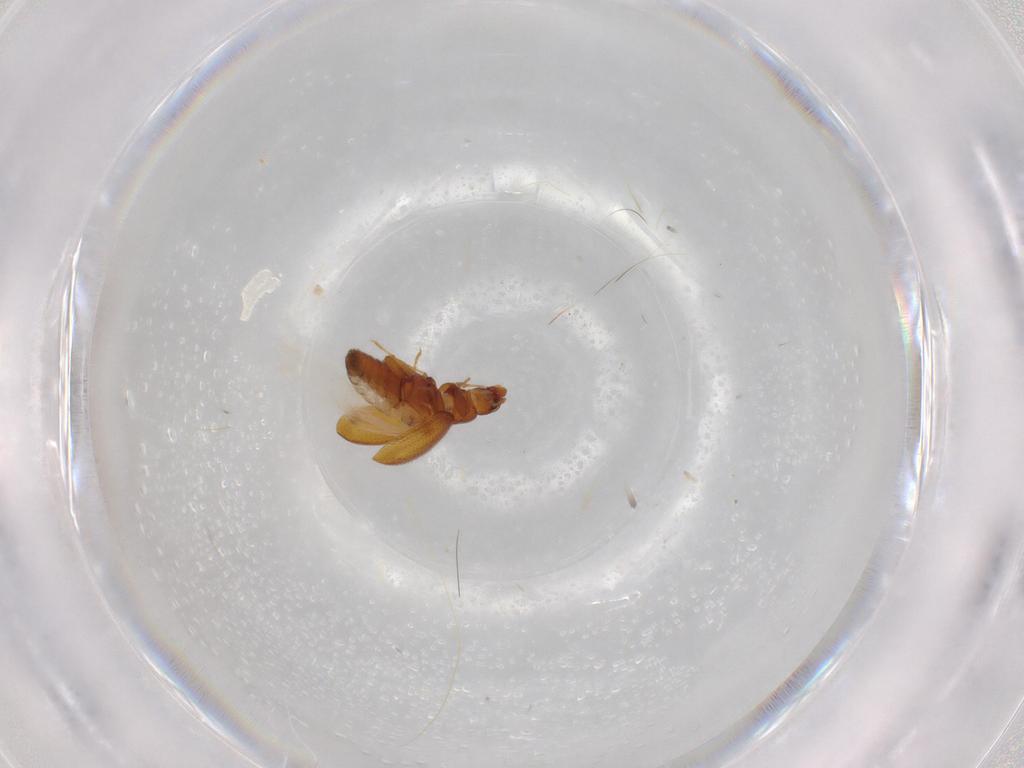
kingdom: Animalia
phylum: Arthropoda
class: Insecta
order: Coleoptera
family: Latridiidae
